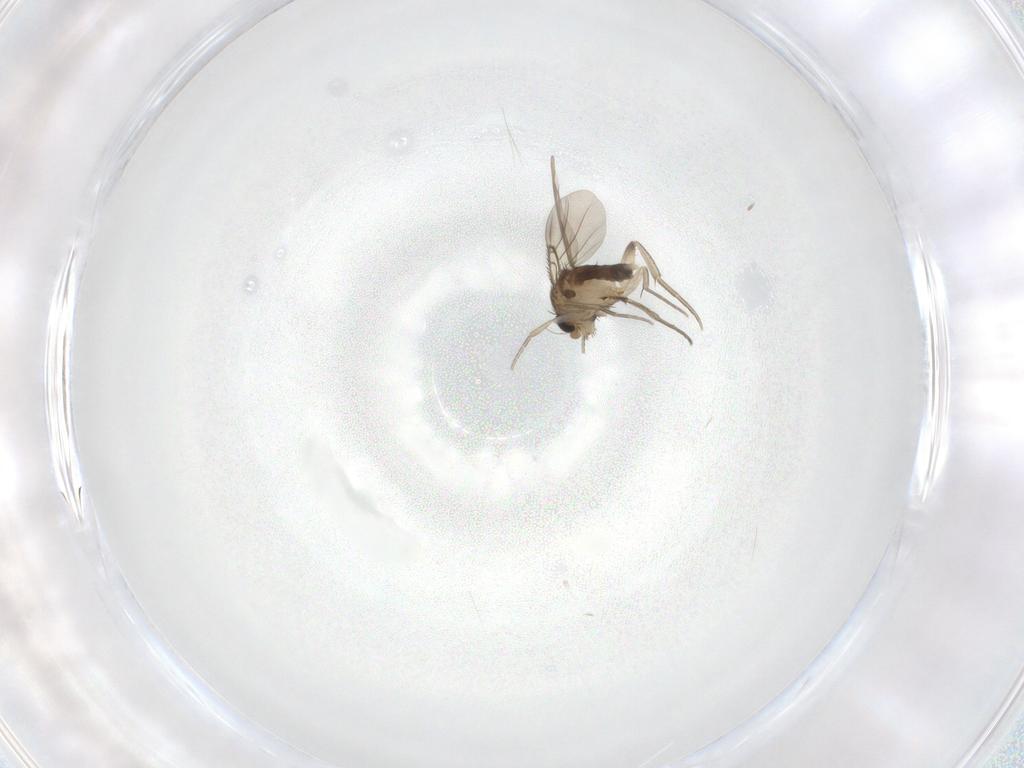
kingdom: Animalia
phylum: Arthropoda
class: Insecta
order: Diptera
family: Phoridae
